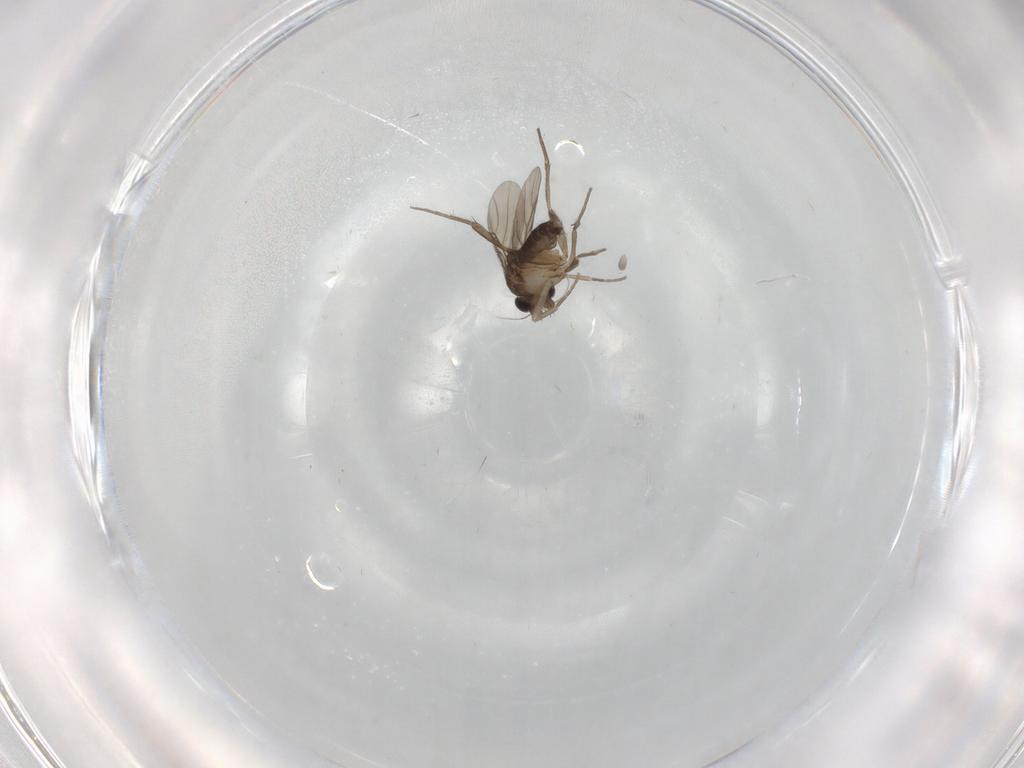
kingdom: Animalia
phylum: Arthropoda
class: Insecta
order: Diptera
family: Phoridae
